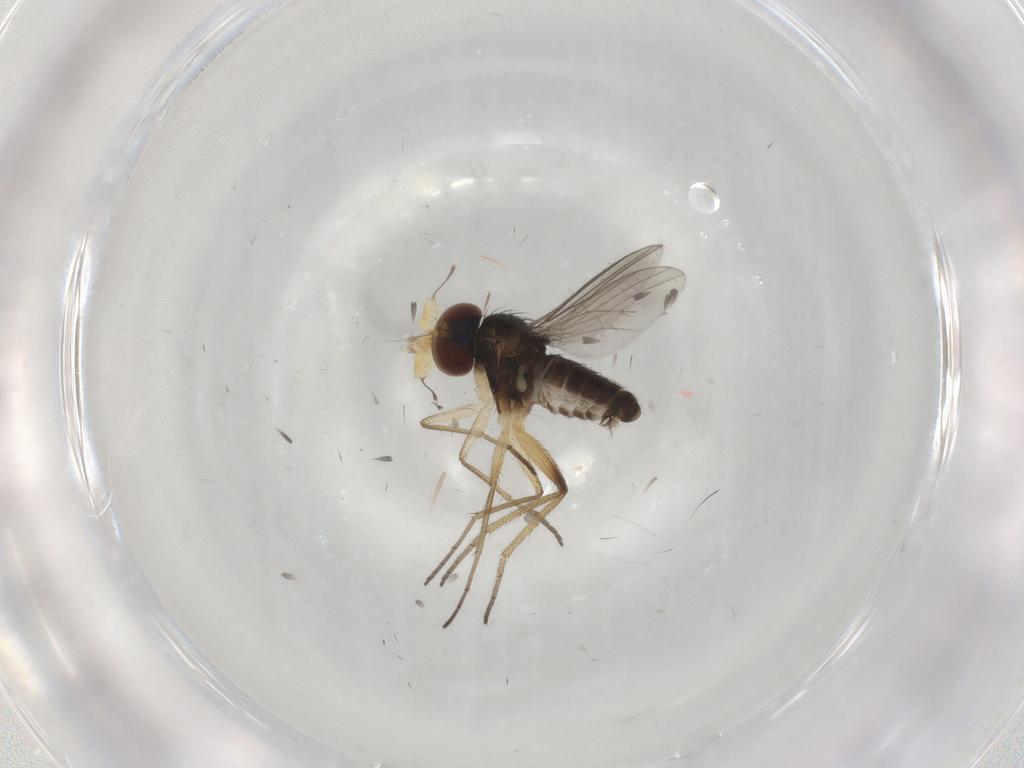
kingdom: Animalia
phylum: Arthropoda
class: Insecta
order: Diptera
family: Dolichopodidae
